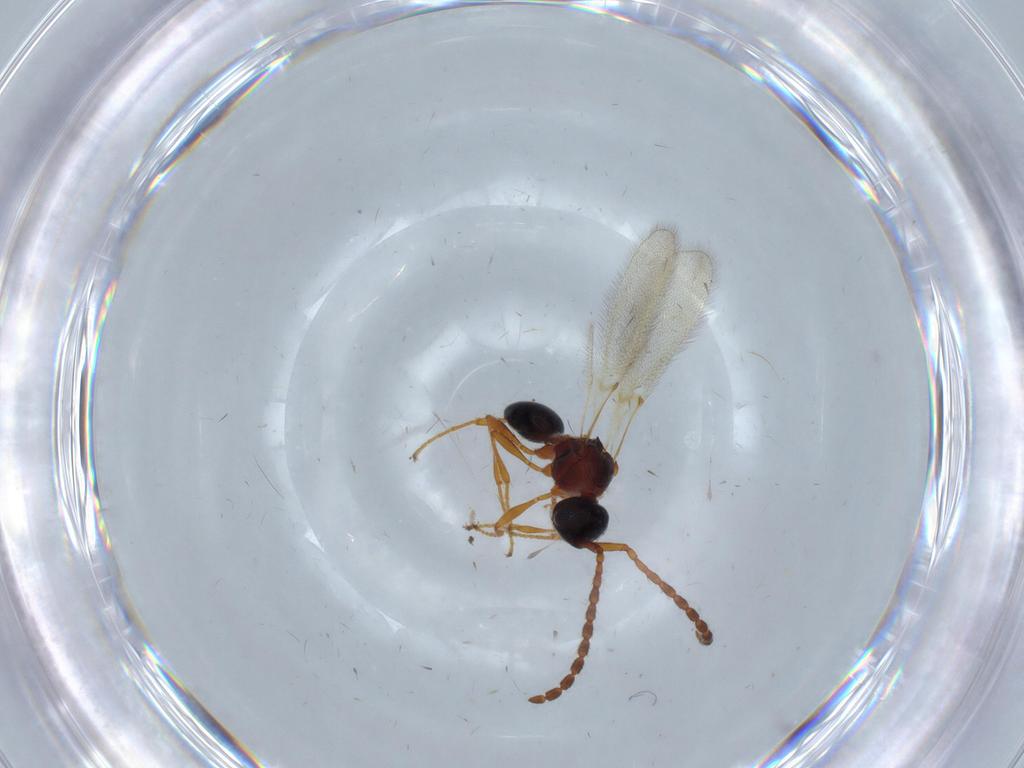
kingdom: Animalia
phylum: Arthropoda
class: Insecta
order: Hymenoptera
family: Diapriidae
